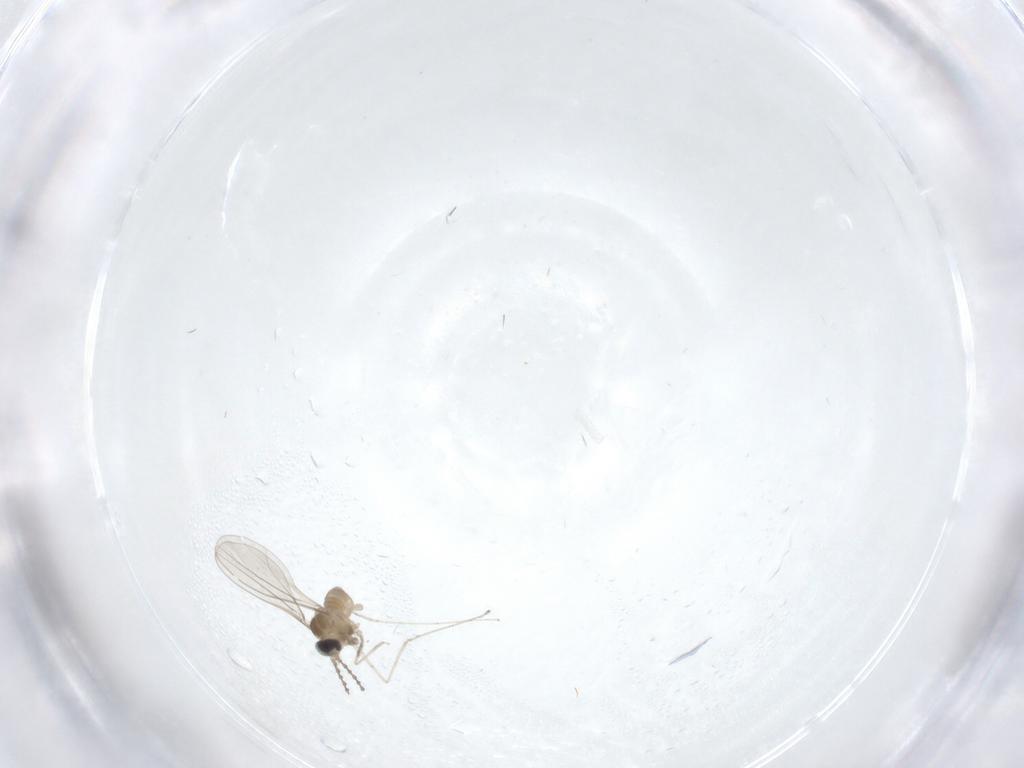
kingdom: Animalia
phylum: Arthropoda
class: Insecta
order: Diptera
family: Cecidomyiidae
